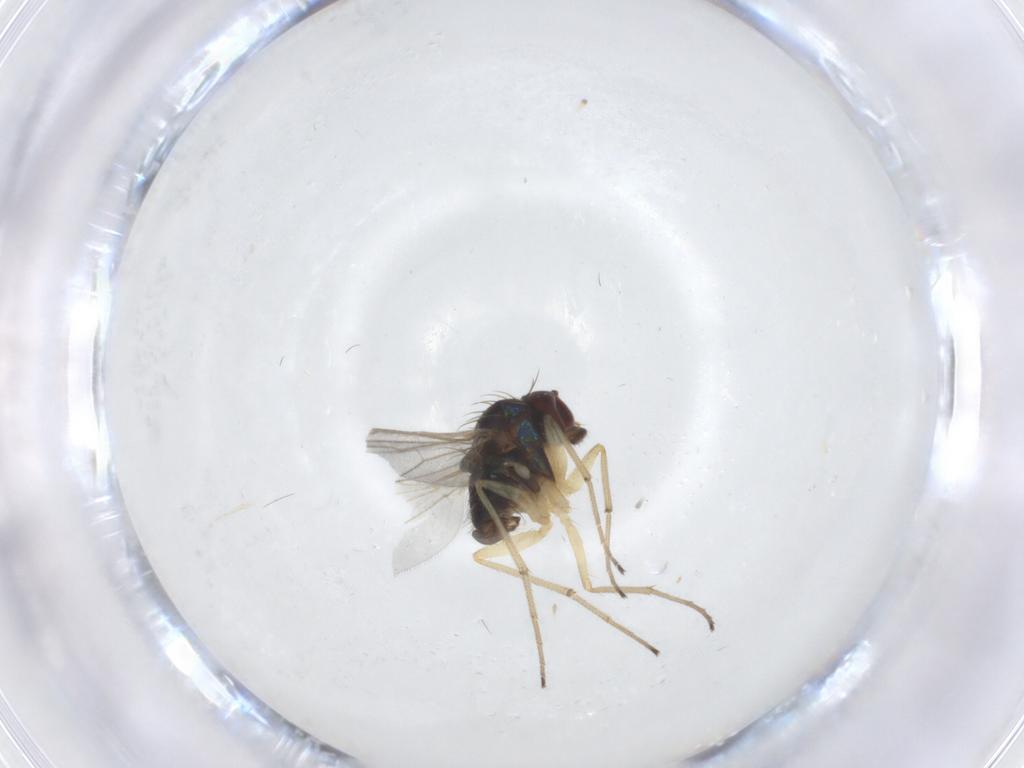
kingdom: Animalia
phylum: Arthropoda
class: Insecta
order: Diptera
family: Dolichopodidae
